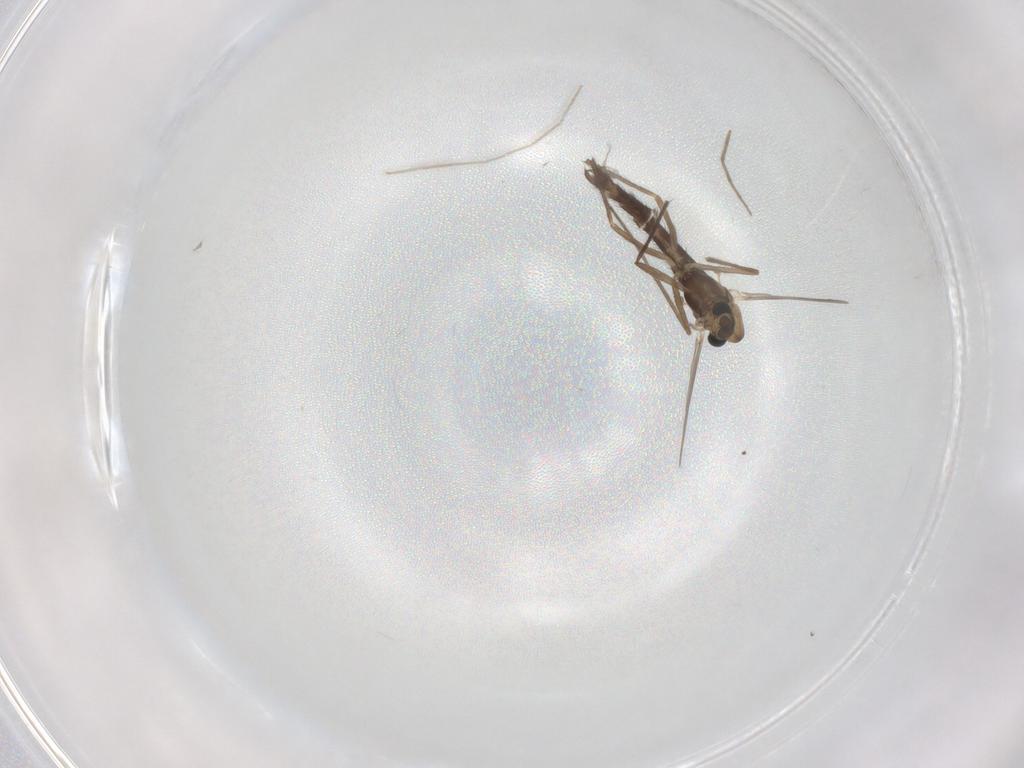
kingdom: Animalia
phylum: Arthropoda
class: Insecta
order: Diptera
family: Chironomidae
